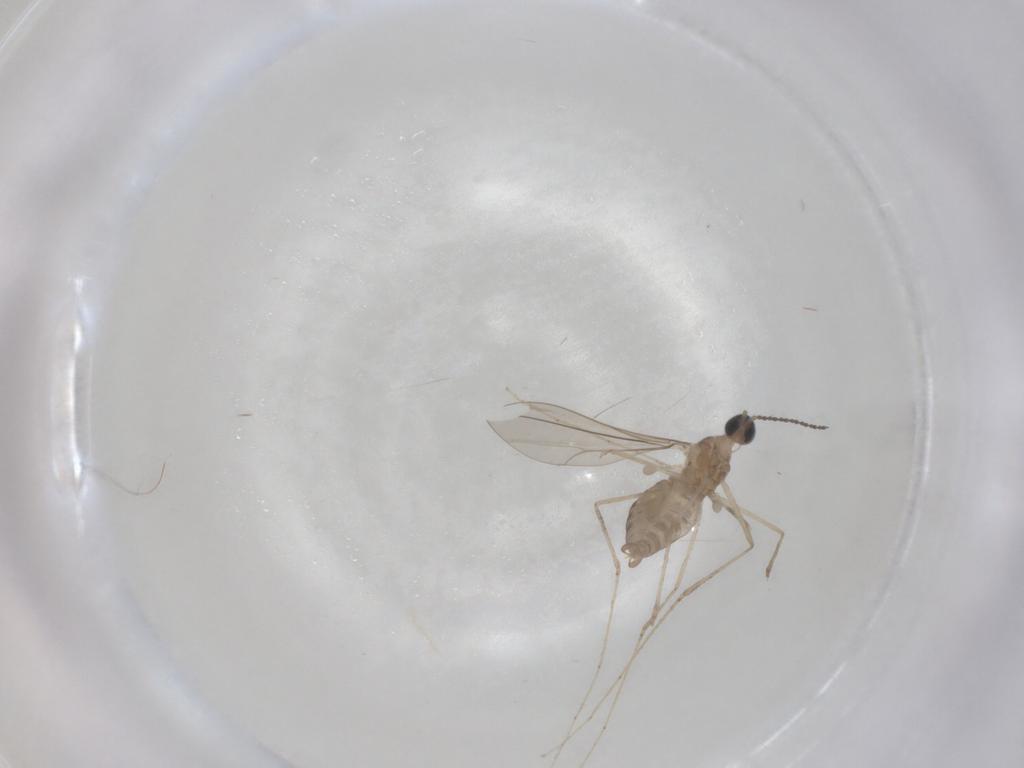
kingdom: Animalia
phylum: Arthropoda
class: Insecta
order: Diptera
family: Cecidomyiidae
